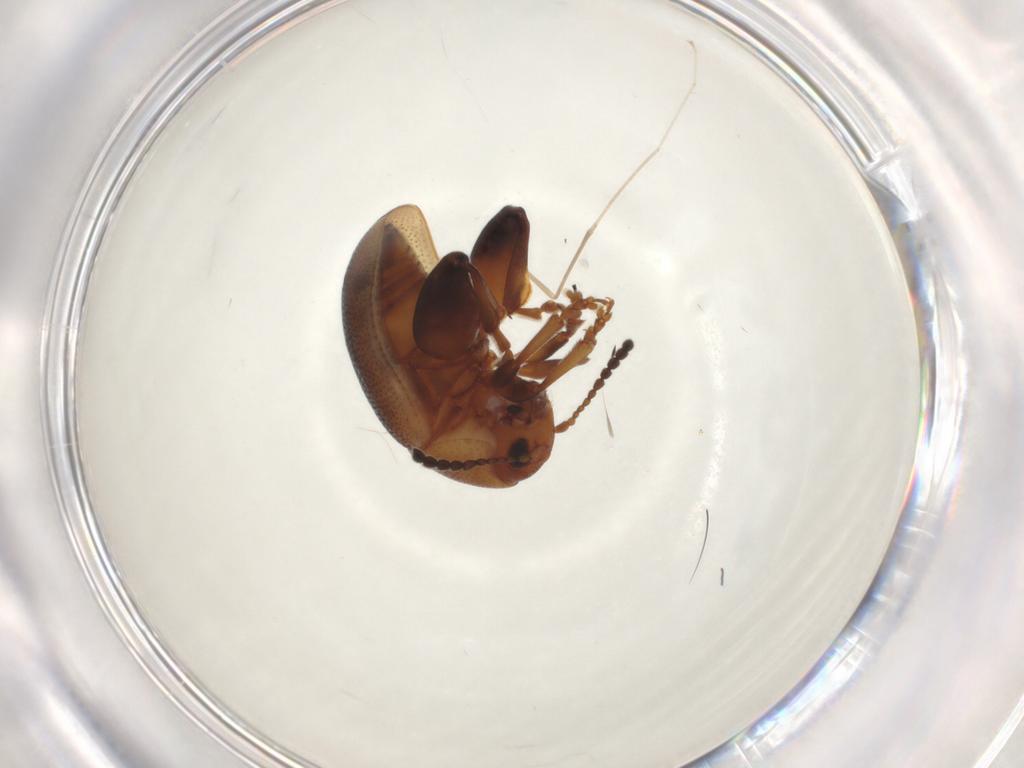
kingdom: Animalia
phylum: Arthropoda
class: Insecta
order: Coleoptera
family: Chrysomelidae
